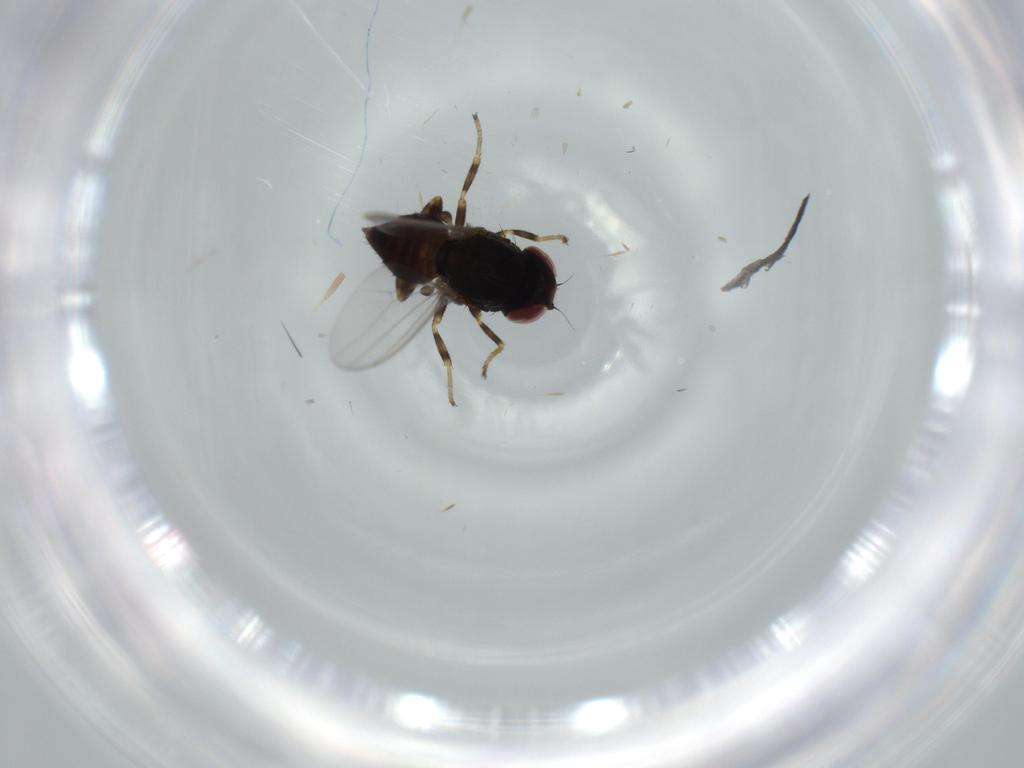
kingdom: Animalia
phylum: Arthropoda
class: Insecta
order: Diptera
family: Chloropidae
